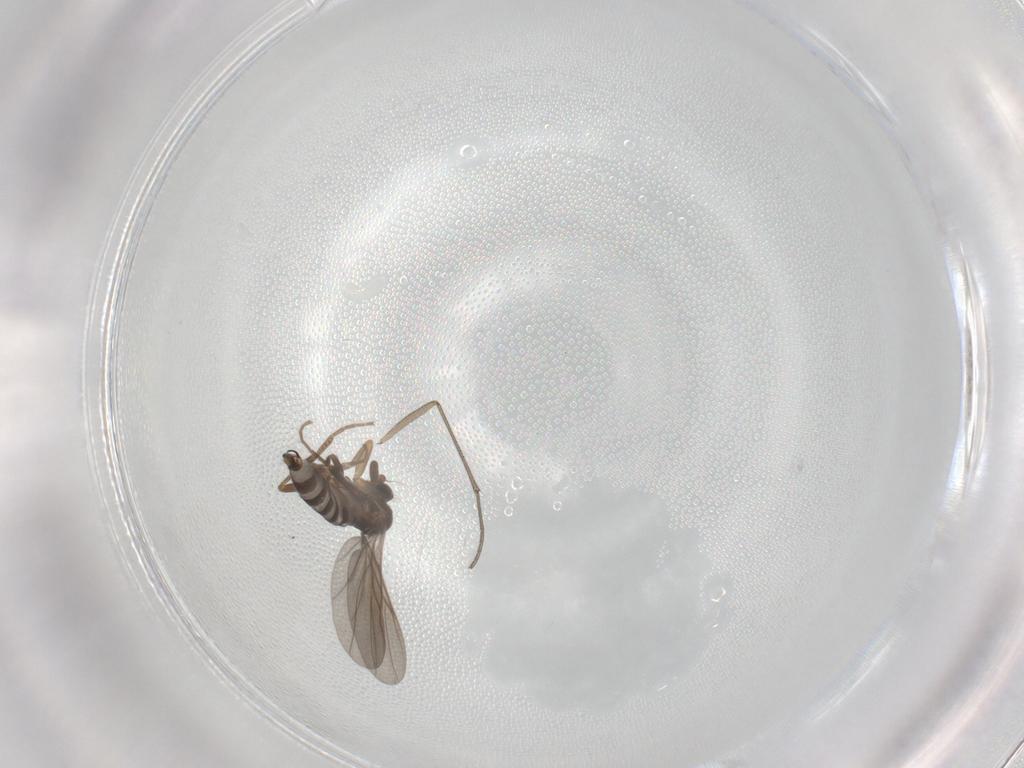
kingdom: Animalia
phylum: Arthropoda
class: Insecta
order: Diptera
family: Sciaridae
